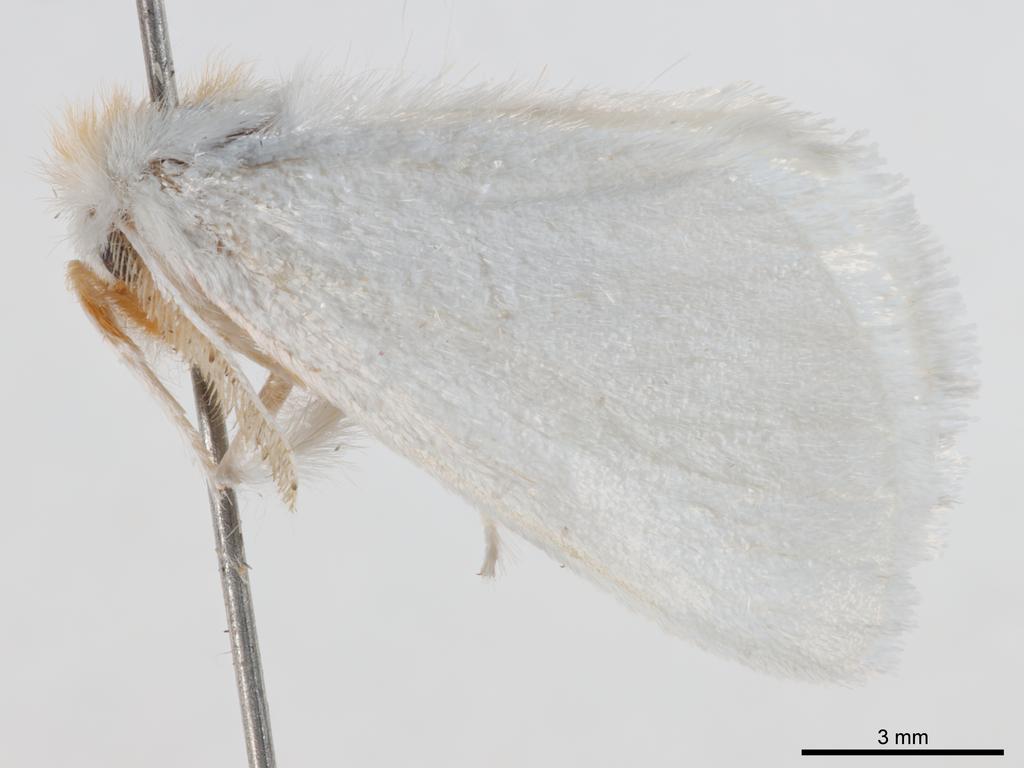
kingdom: Animalia
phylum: Arthropoda
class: Insecta
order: Lepidoptera
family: Erebidae
